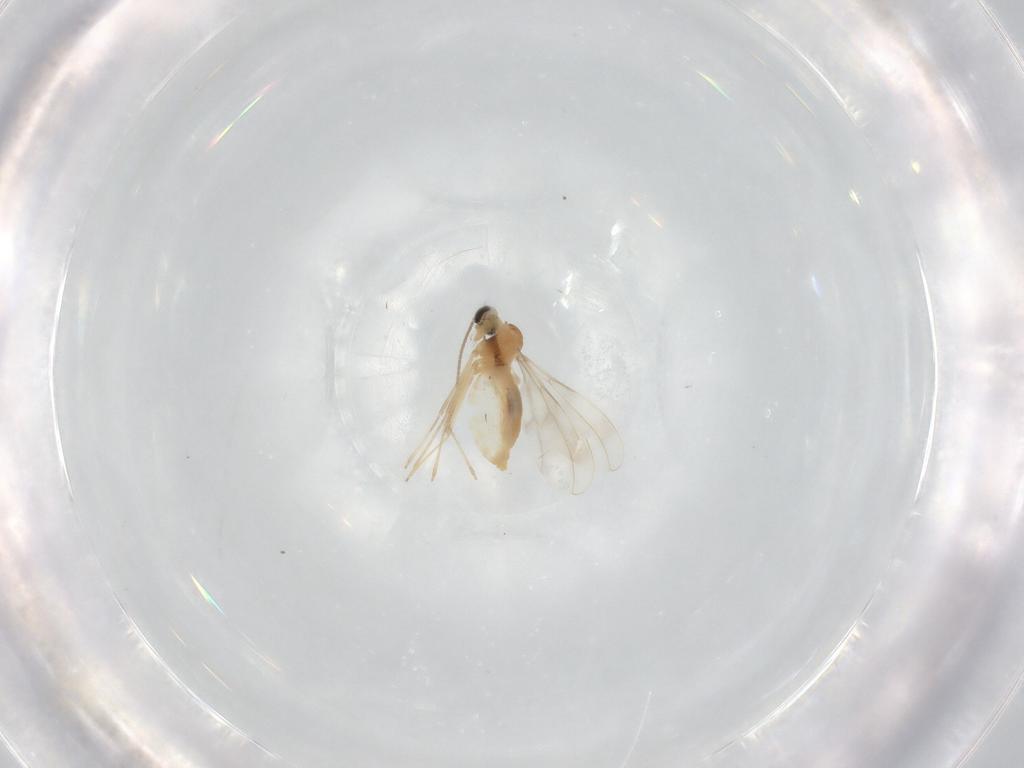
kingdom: Animalia
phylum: Arthropoda
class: Insecta
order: Diptera
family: Cecidomyiidae
